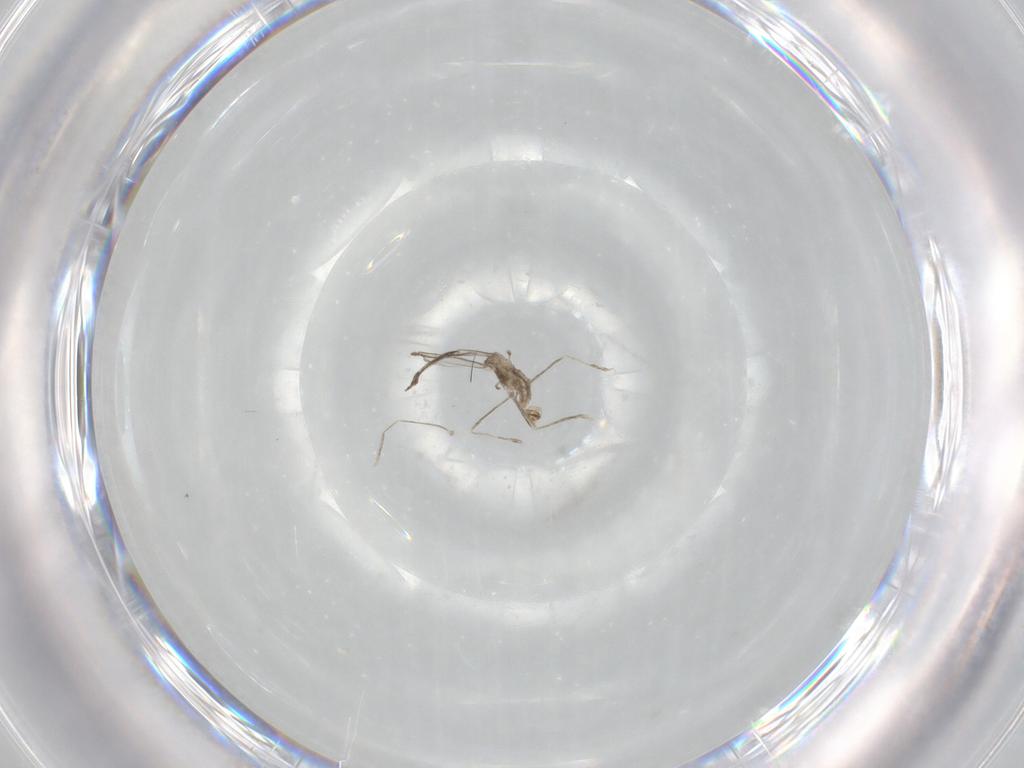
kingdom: Animalia
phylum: Arthropoda
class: Insecta
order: Diptera
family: Cecidomyiidae
